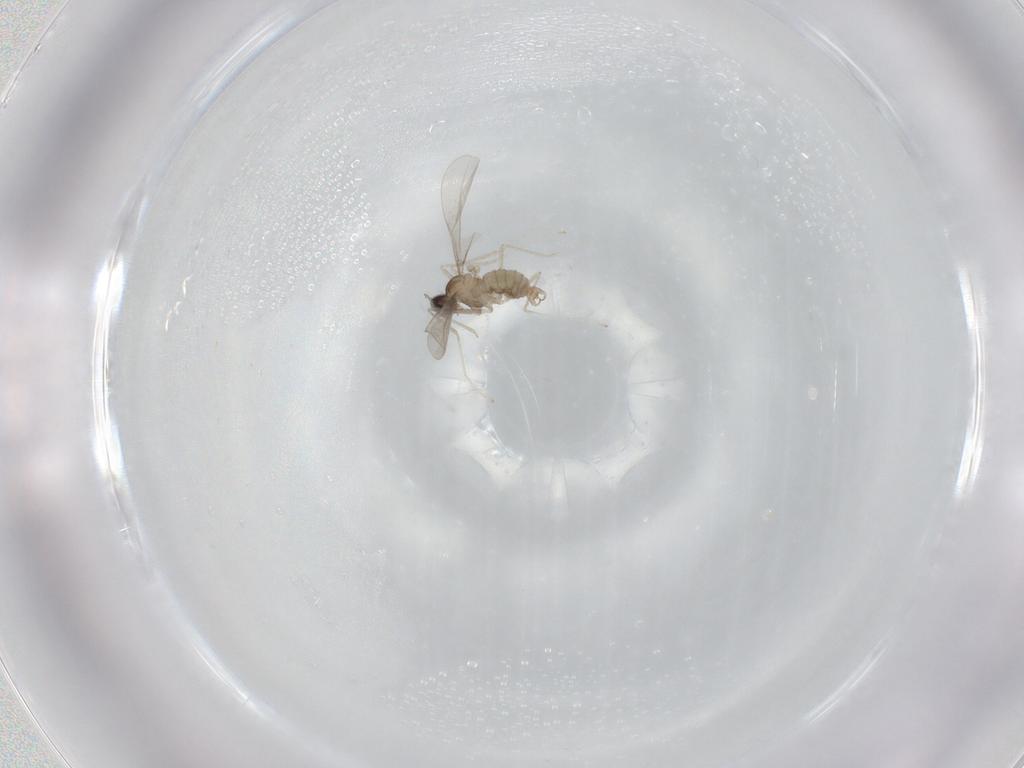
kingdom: Animalia
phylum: Arthropoda
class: Insecta
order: Diptera
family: Cecidomyiidae
